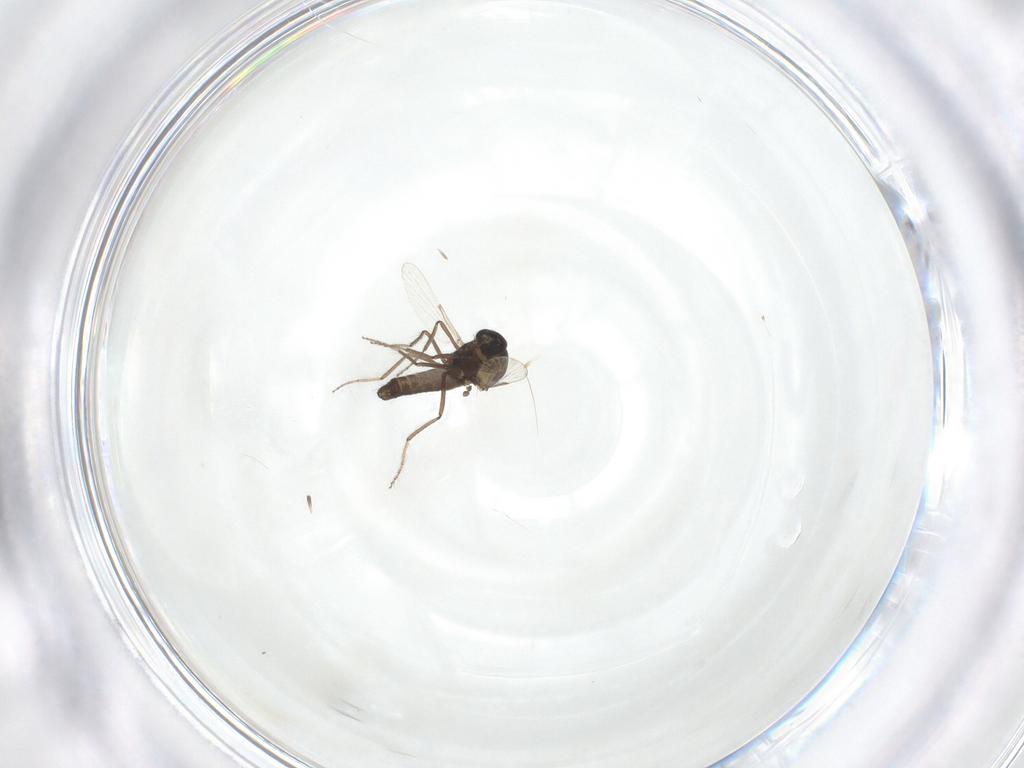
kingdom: Animalia
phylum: Arthropoda
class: Insecta
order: Diptera
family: Ceratopogonidae
